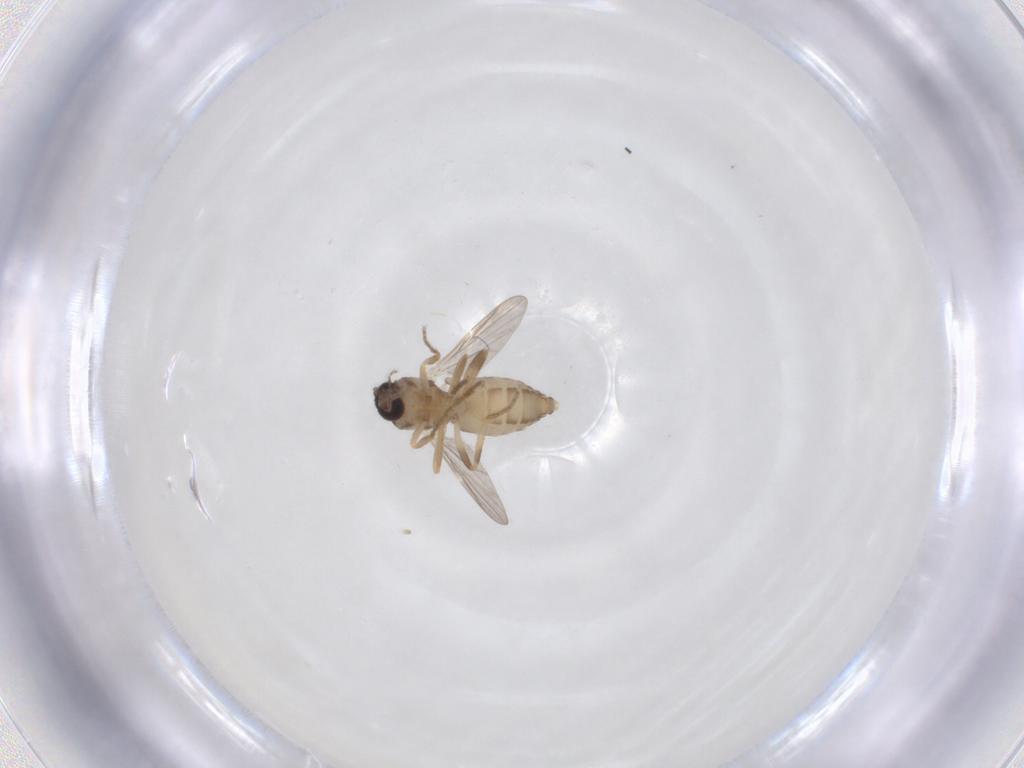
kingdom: Animalia
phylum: Arthropoda
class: Insecta
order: Diptera
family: Ceratopogonidae
